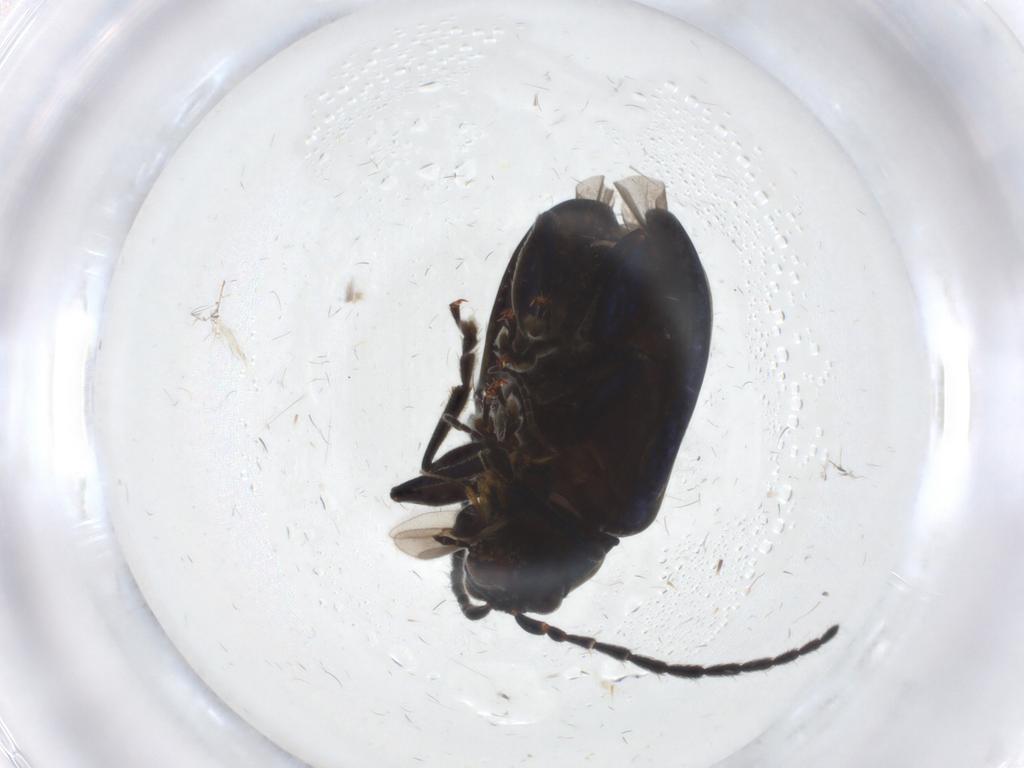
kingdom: Animalia
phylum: Arthropoda
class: Insecta
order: Coleoptera
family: Chrysomelidae
